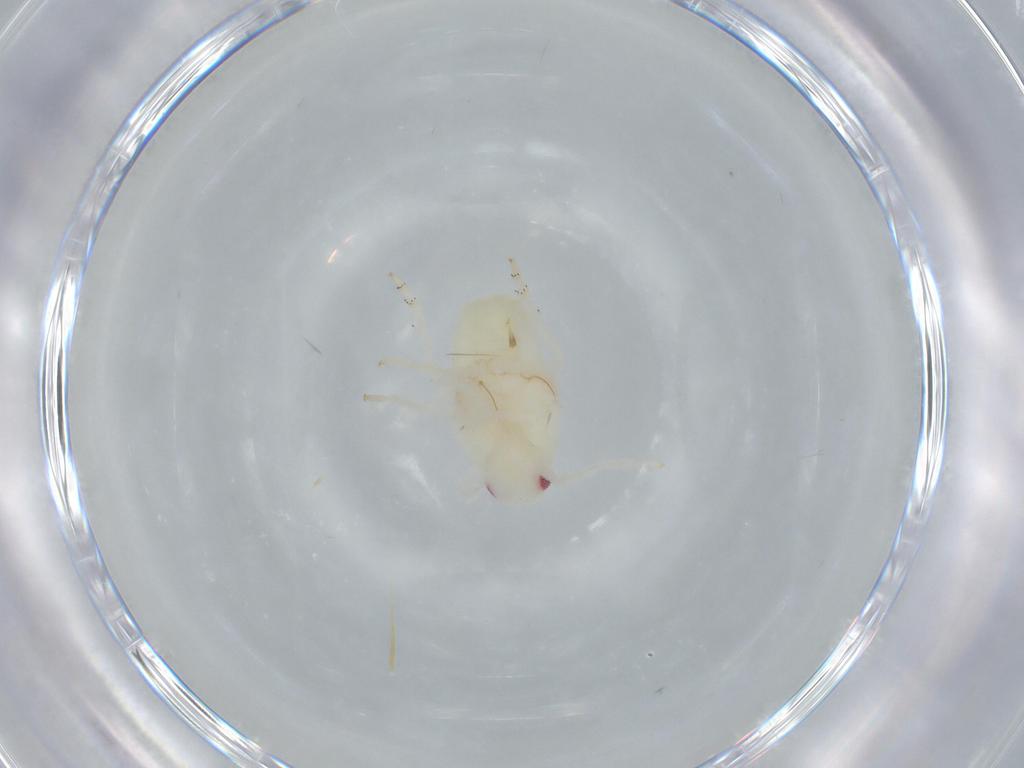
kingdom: Animalia
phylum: Arthropoda
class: Insecta
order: Hemiptera
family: Flatidae
